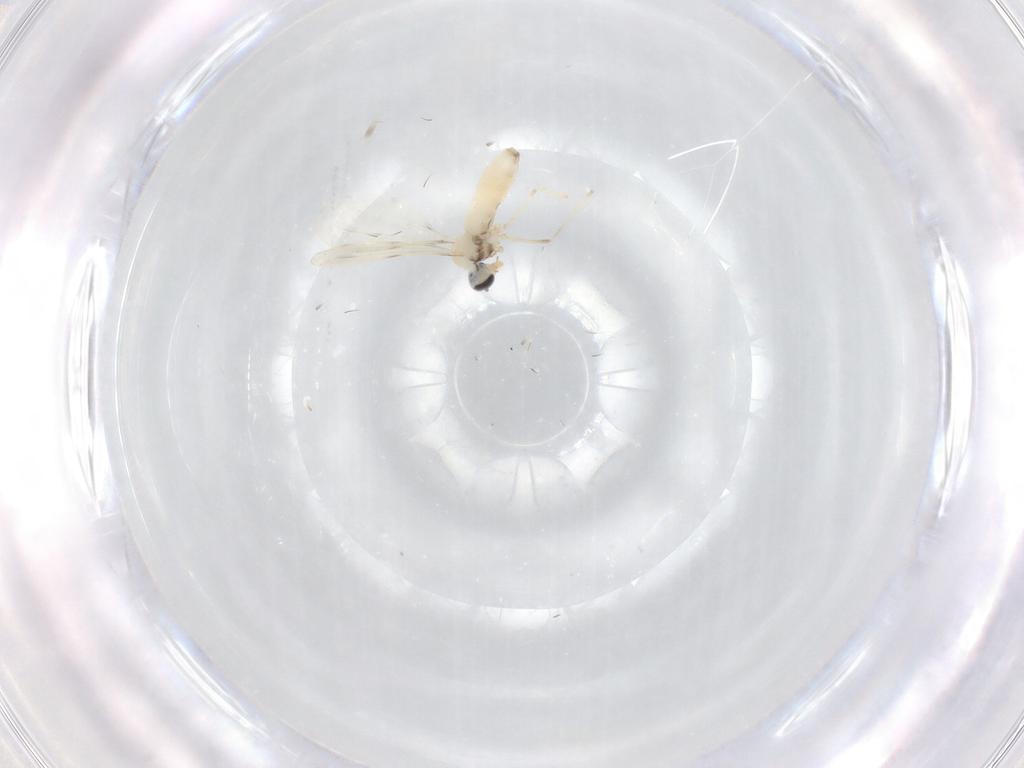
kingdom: Animalia
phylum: Arthropoda
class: Insecta
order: Diptera
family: Cecidomyiidae
